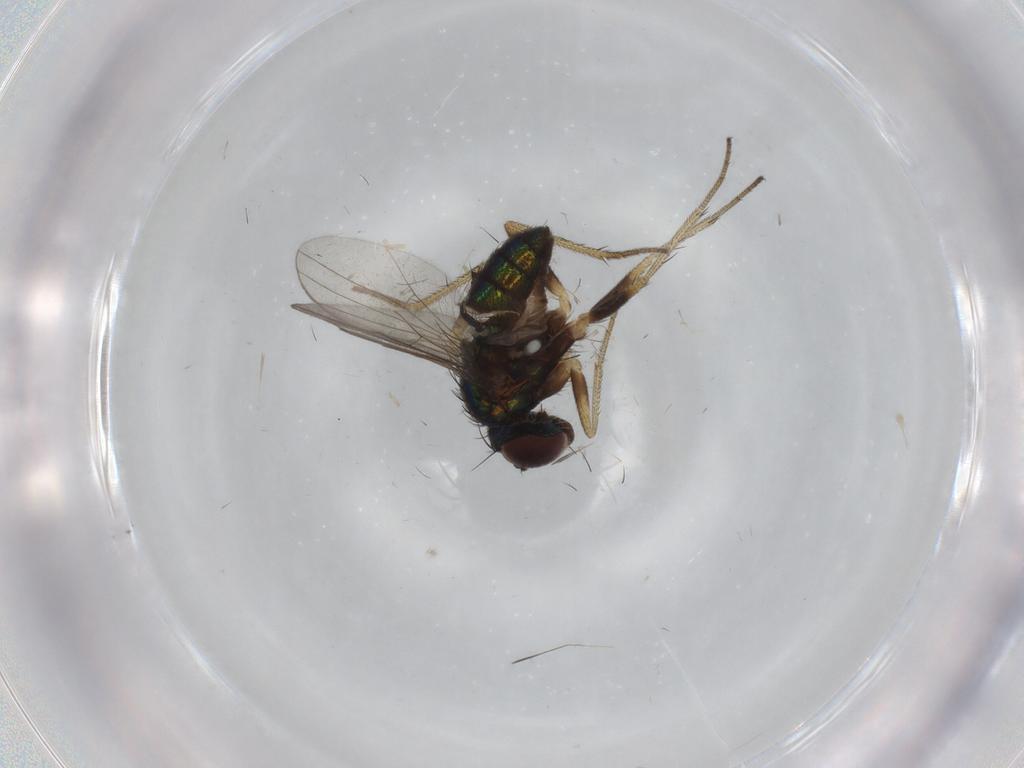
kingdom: Animalia
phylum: Arthropoda
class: Insecta
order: Diptera
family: Dolichopodidae
